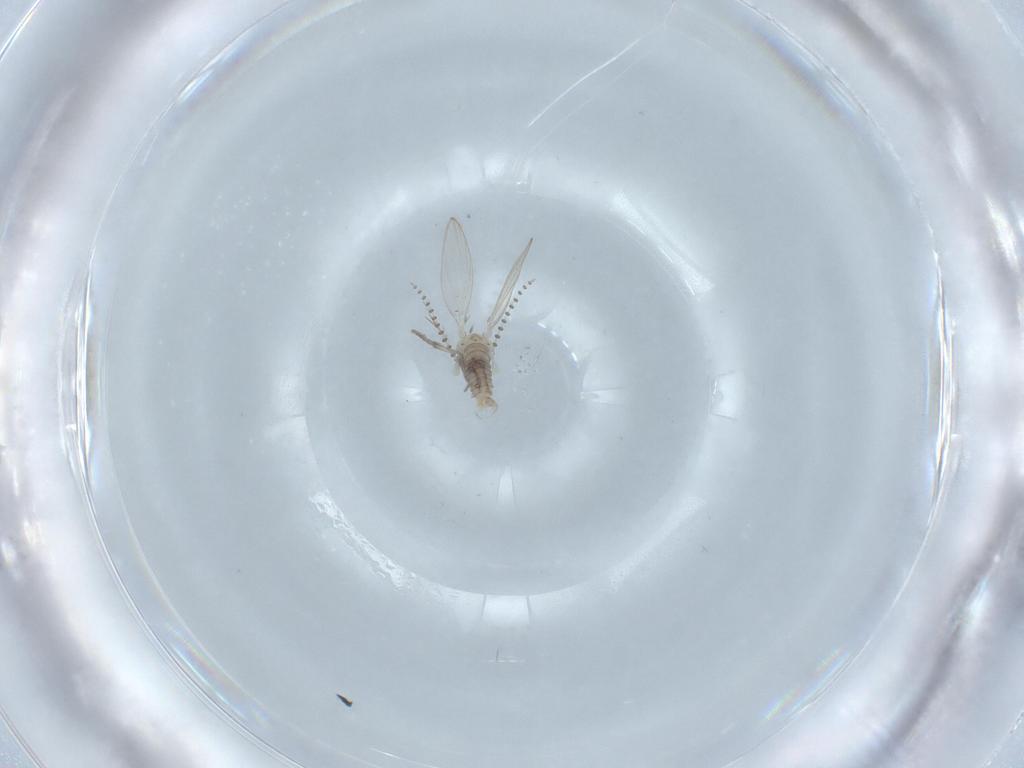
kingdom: Animalia
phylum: Arthropoda
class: Insecta
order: Diptera
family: Psychodidae
